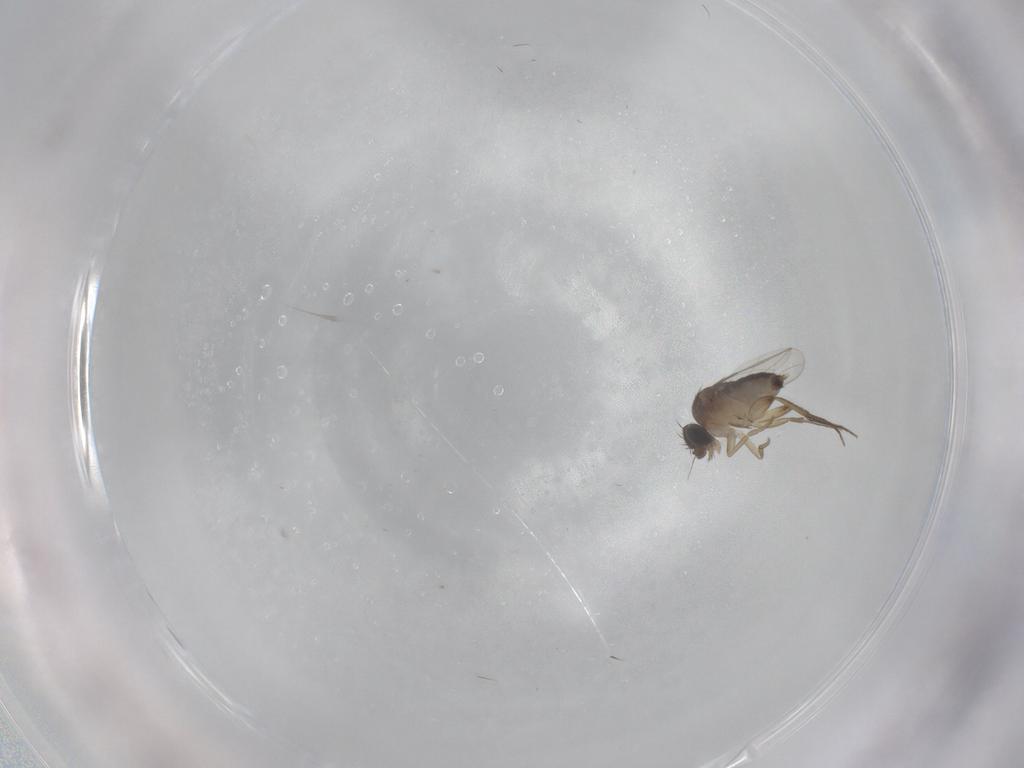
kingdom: Animalia
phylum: Arthropoda
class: Insecta
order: Diptera
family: Phoridae
